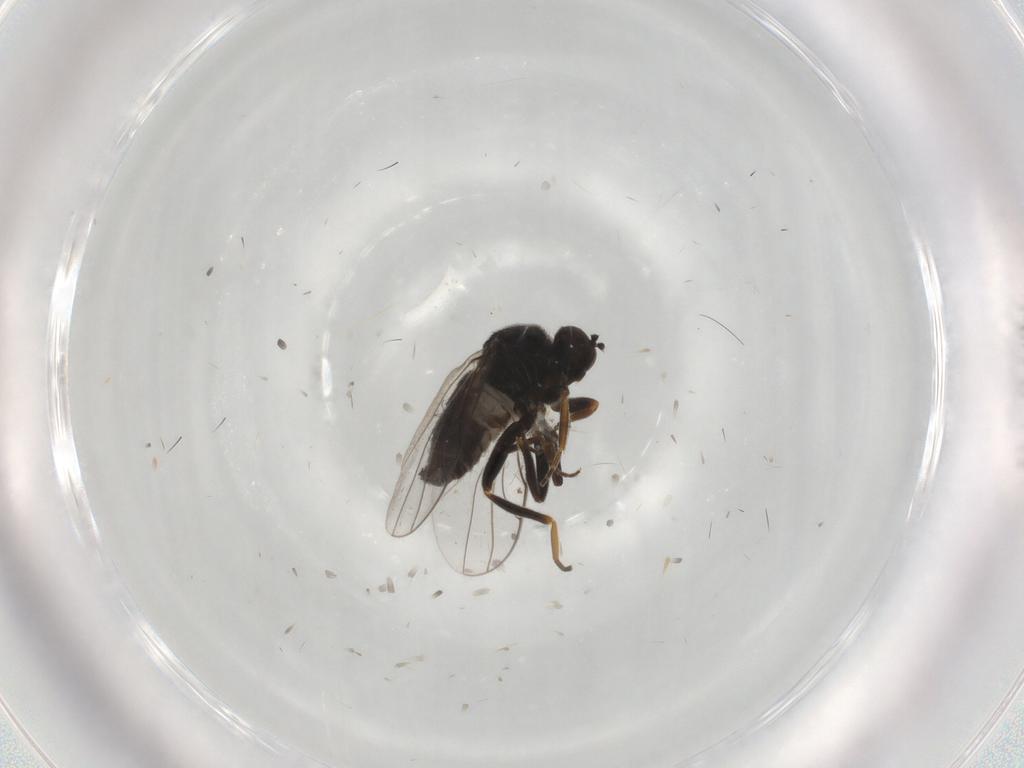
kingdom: Animalia
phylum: Arthropoda
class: Insecta
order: Diptera
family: Hybotidae
